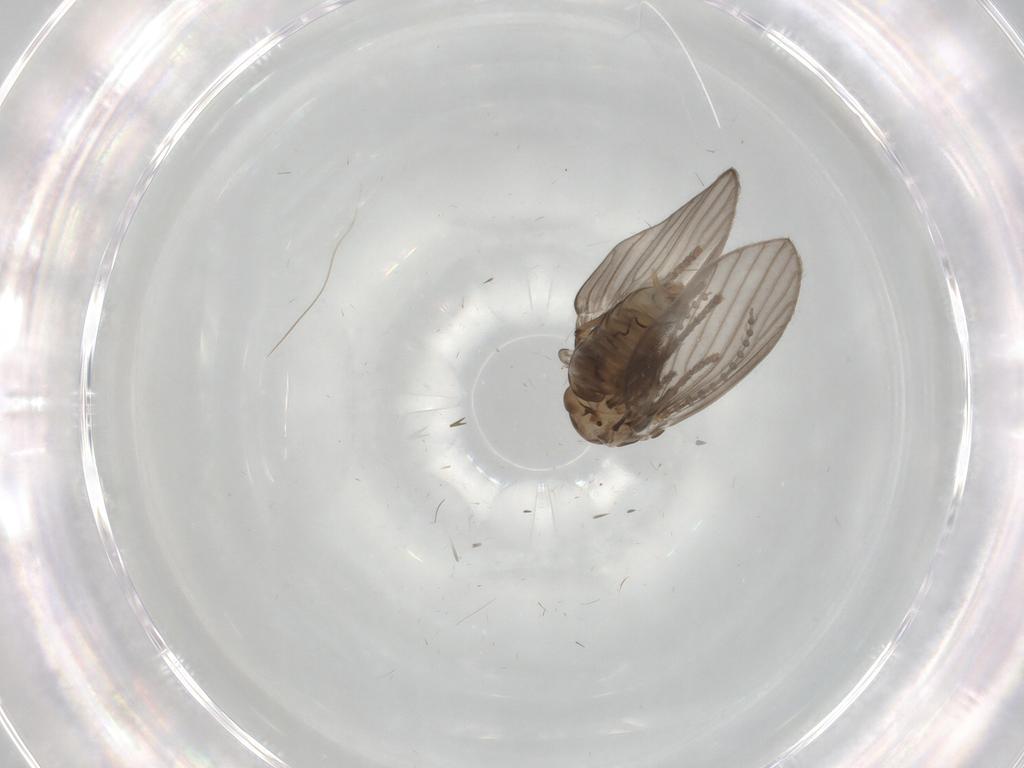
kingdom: Animalia
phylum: Arthropoda
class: Insecta
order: Diptera
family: Psychodidae
